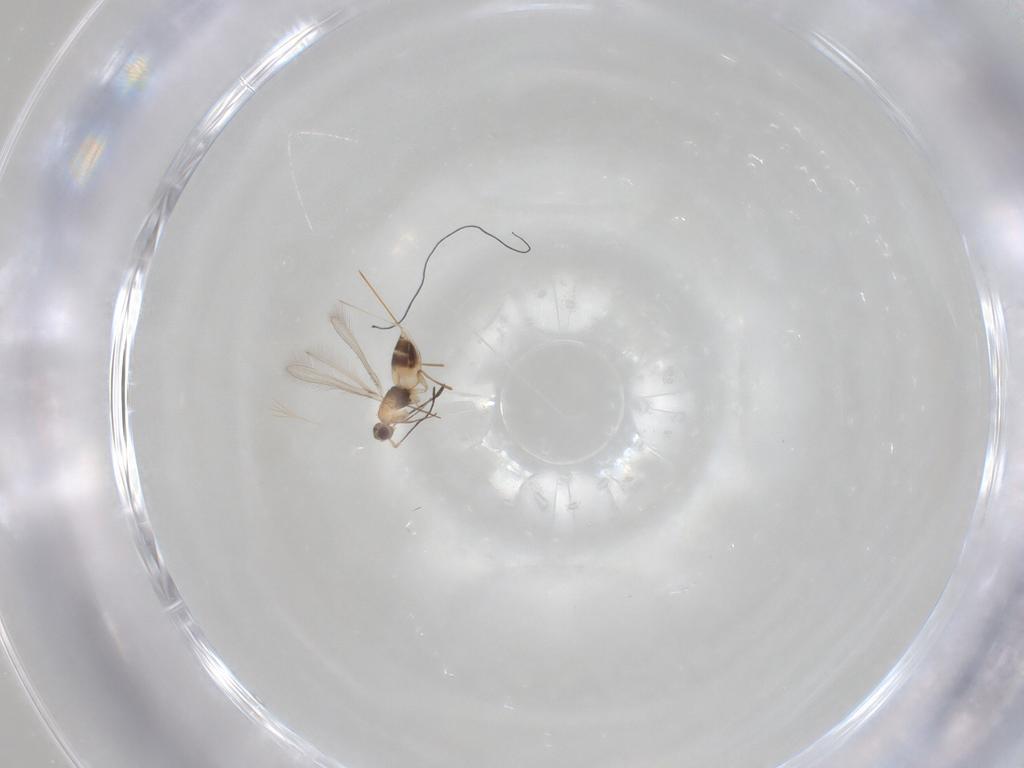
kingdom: Animalia
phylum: Arthropoda
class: Insecta
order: Hymenoptera
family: Mymaridae
